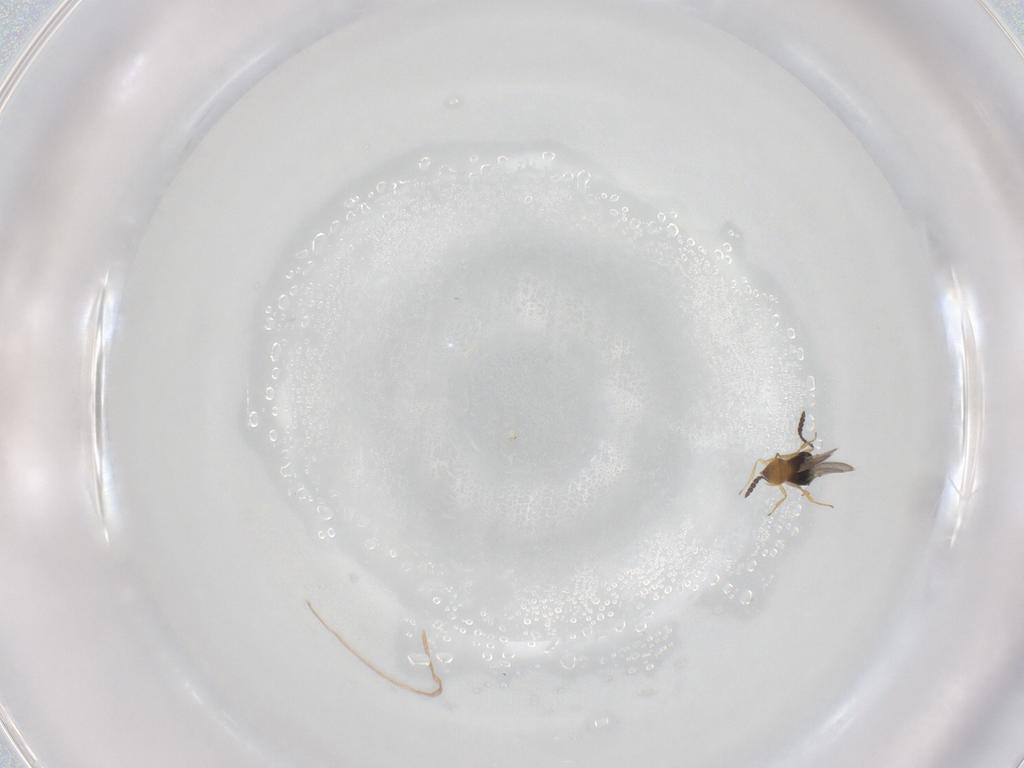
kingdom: Animalia
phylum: Arthropoda
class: Insecta
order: Hymenoptera
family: Scelionidae
